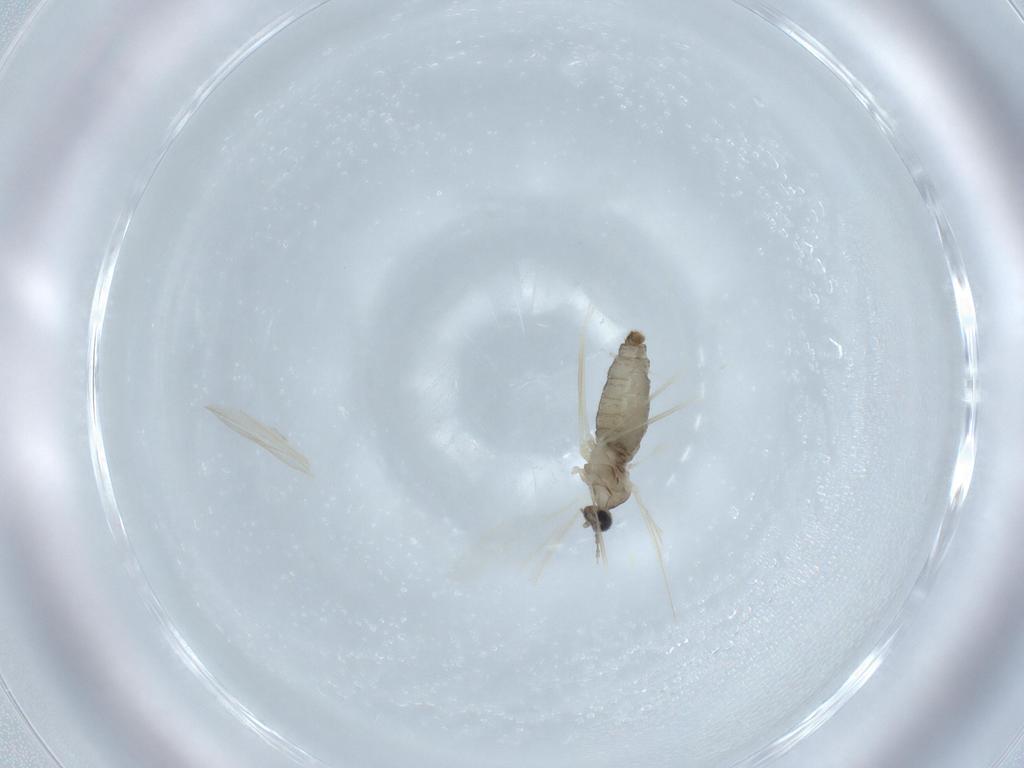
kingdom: Animalia
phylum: Arthropoda
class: Insecta
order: Diptera
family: Cecidomyiidae
